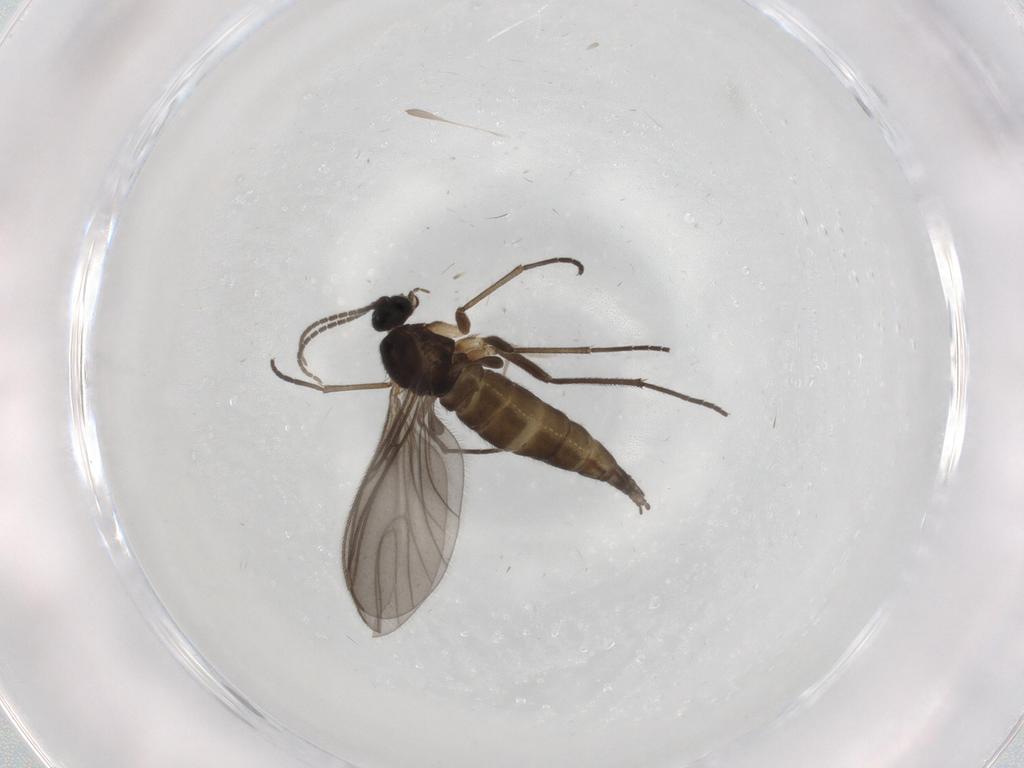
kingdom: Animalia
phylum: Arthropoda
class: Insecta
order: Diptera
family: Sciaridae
